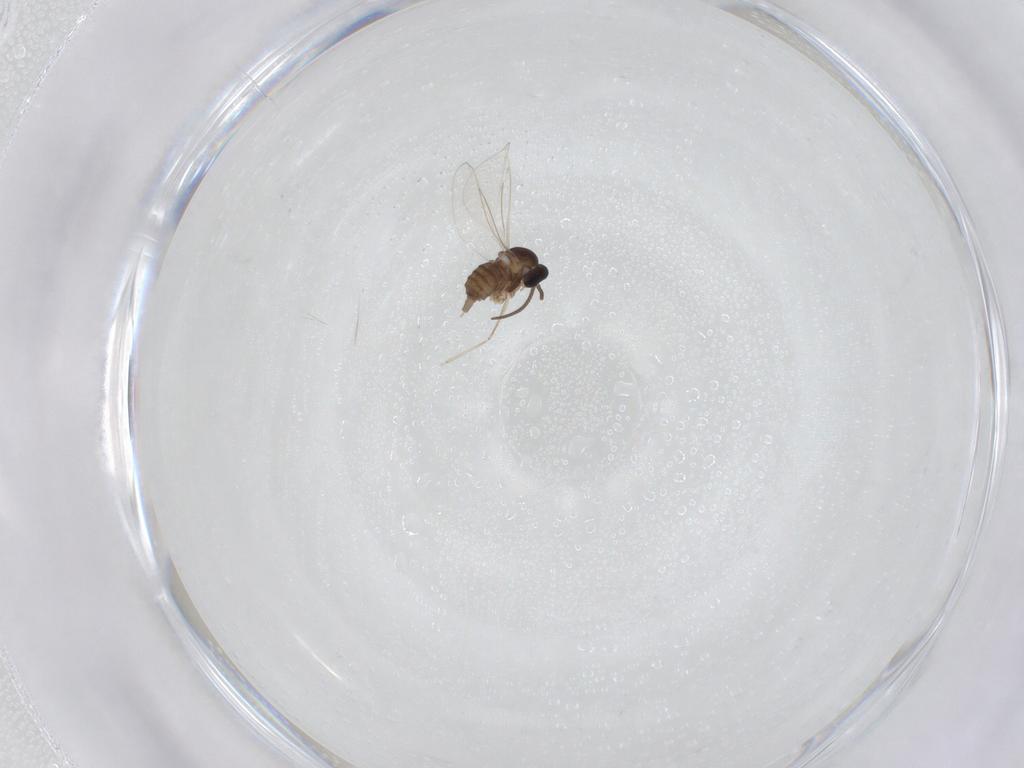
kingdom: Animalia
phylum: Arthropoda
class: Insecta
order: Diptera
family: Cecidomyiidae
